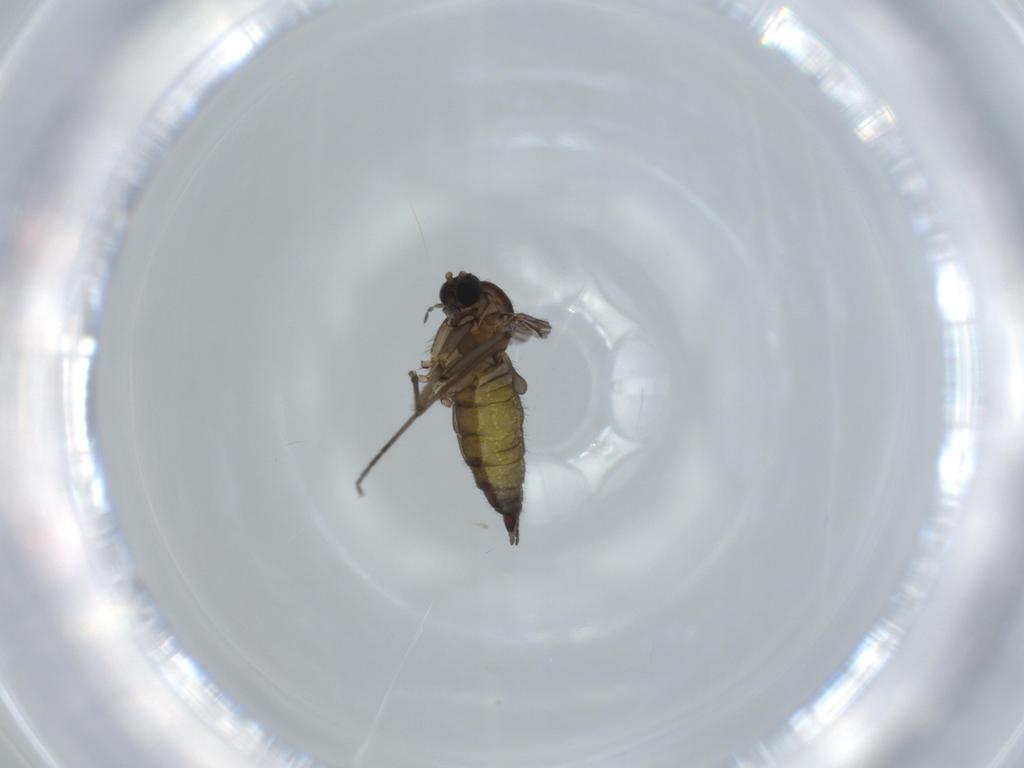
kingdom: Animalia
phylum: Arthropoda
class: Insecta
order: Diptera
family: Sciaridae
